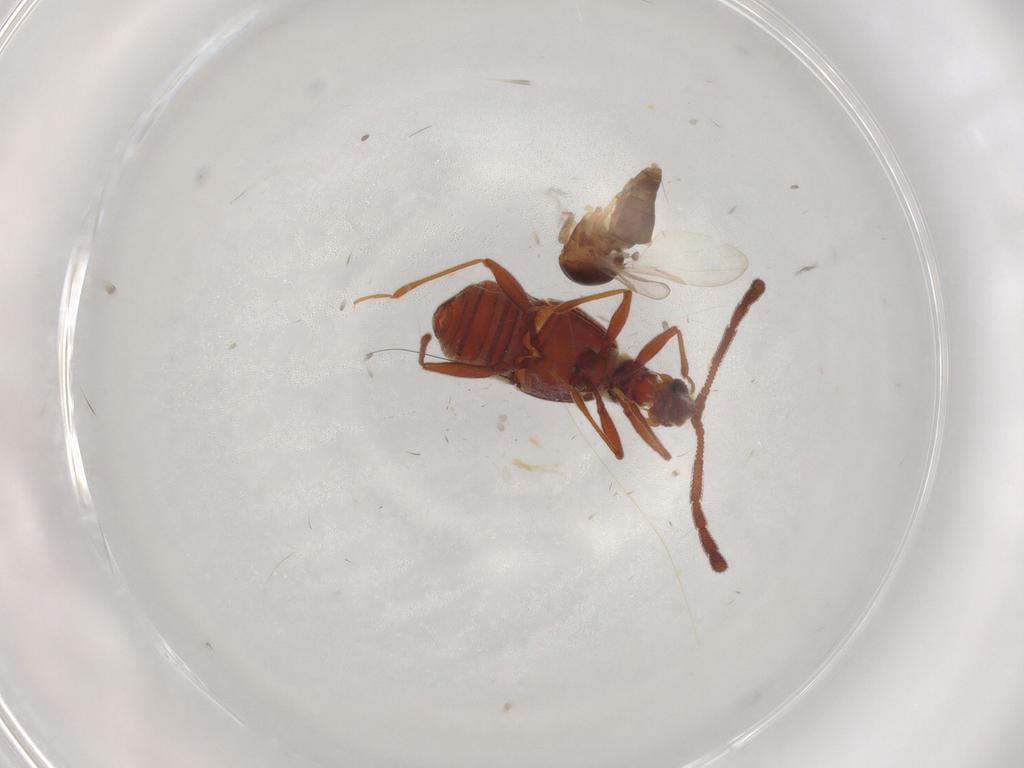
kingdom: Animalia
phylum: Arthropoda
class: Insecta
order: Diptera
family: Ceratopogonidae
